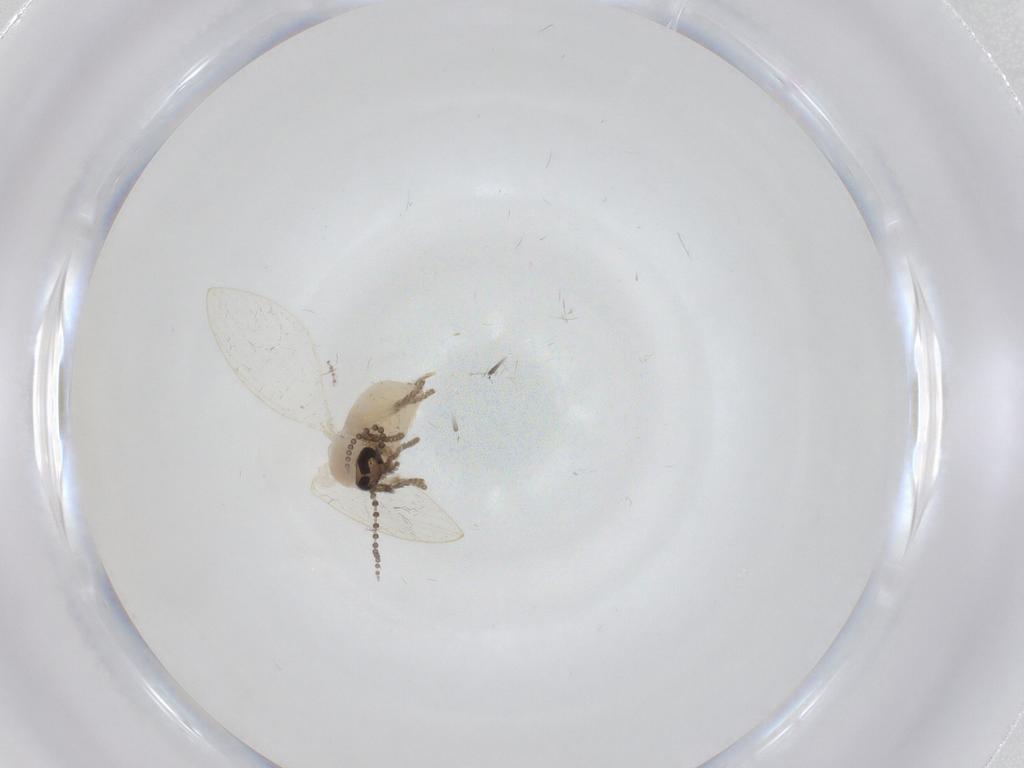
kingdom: Animalia
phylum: Arthropoda
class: Insecta
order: Diptera
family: Psychodidae
